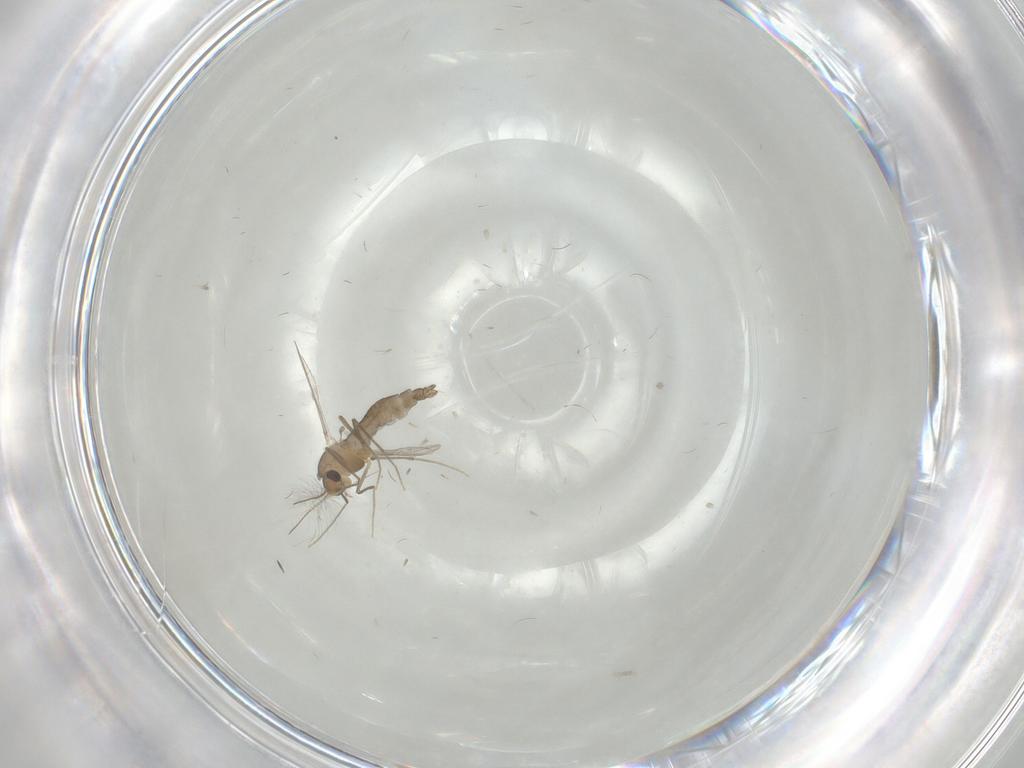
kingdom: Animalia
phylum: Arthropoda
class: Insecta
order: Diptera
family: Chironomidae
